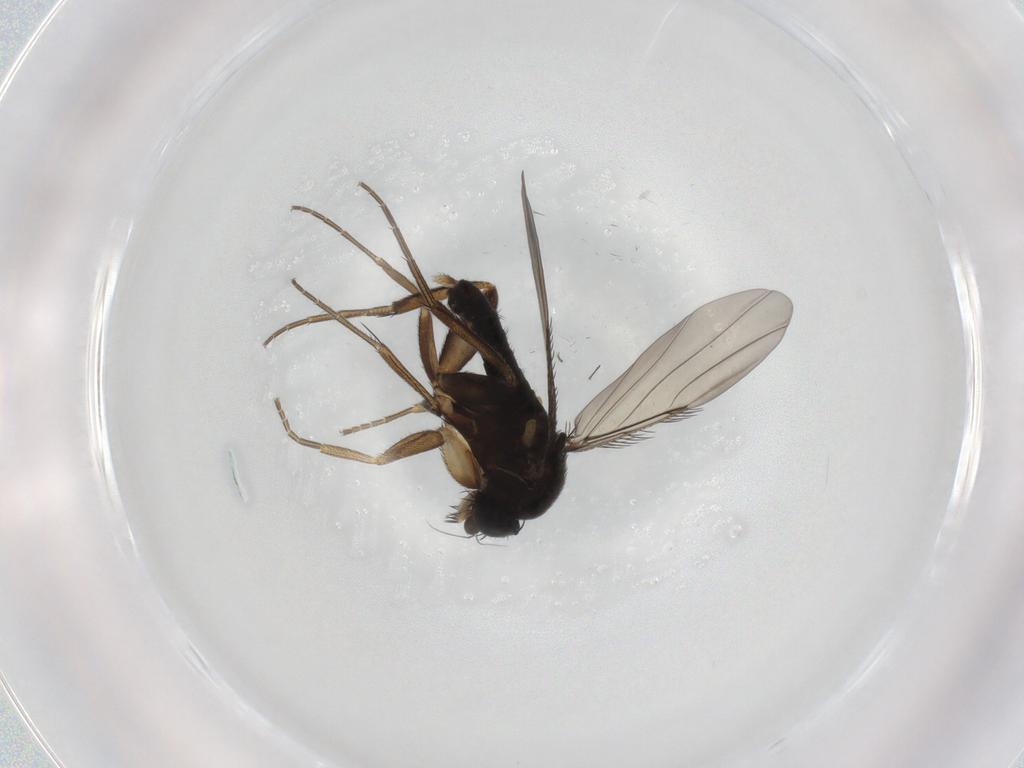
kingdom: Animalia
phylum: Arthropoda
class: Insecta
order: Diptera
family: Phoridae
